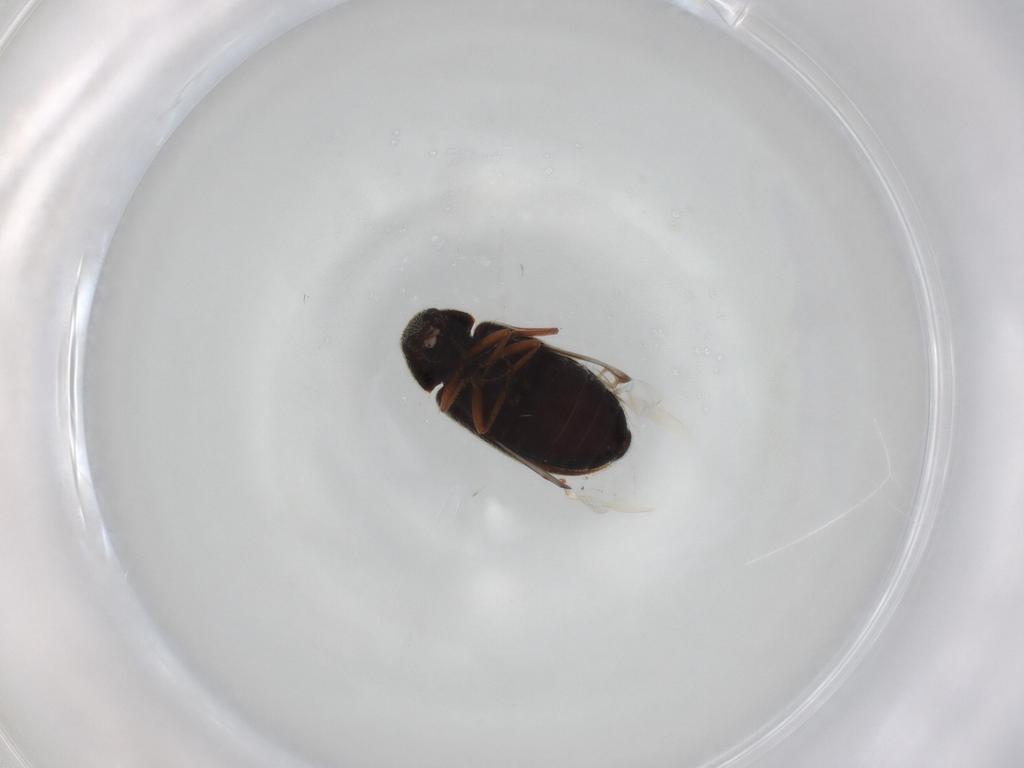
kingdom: Animalia
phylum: Arthropoda
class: Insecta
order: Coleoptera
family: Rhadalidae
